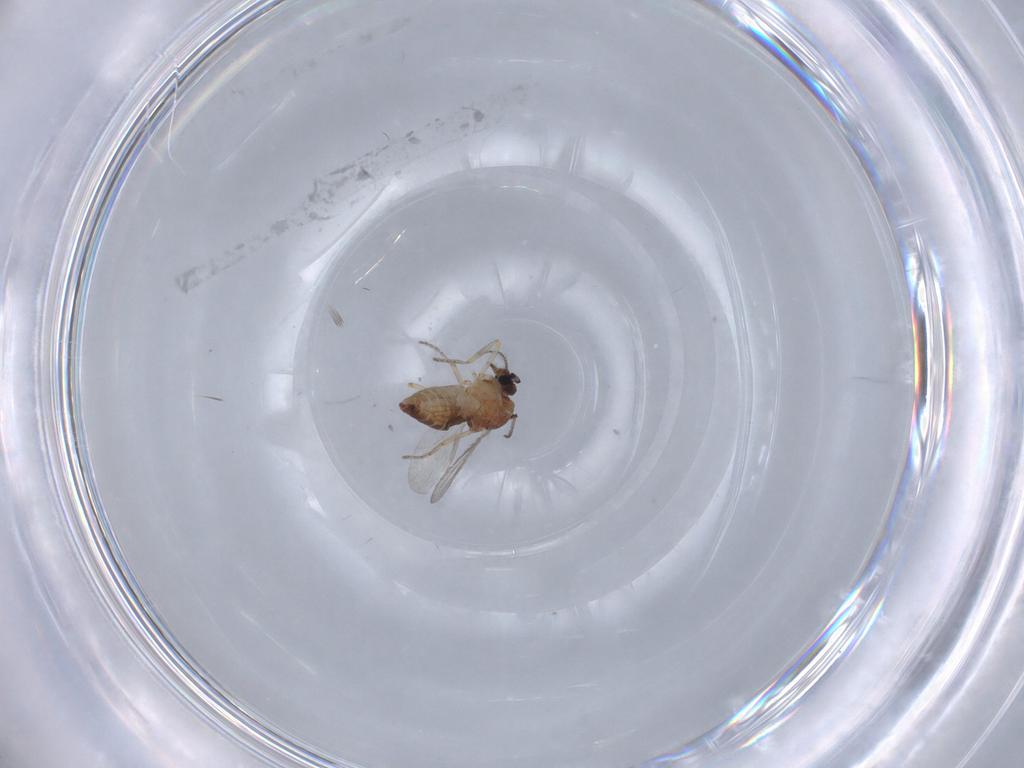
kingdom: Animalia
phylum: Arthropoda
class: Insecta
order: Diptera
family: Ceratopogonidae
